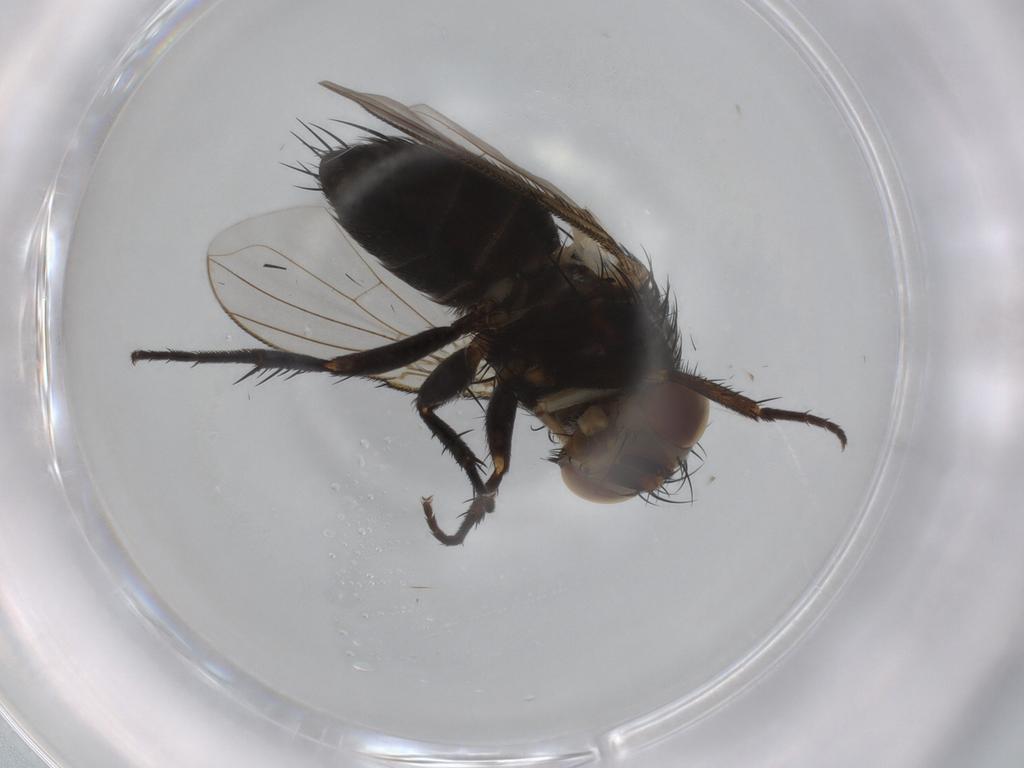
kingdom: Animalia
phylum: Arthropoda
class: Insecta
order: Diptera
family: Tachinidae
